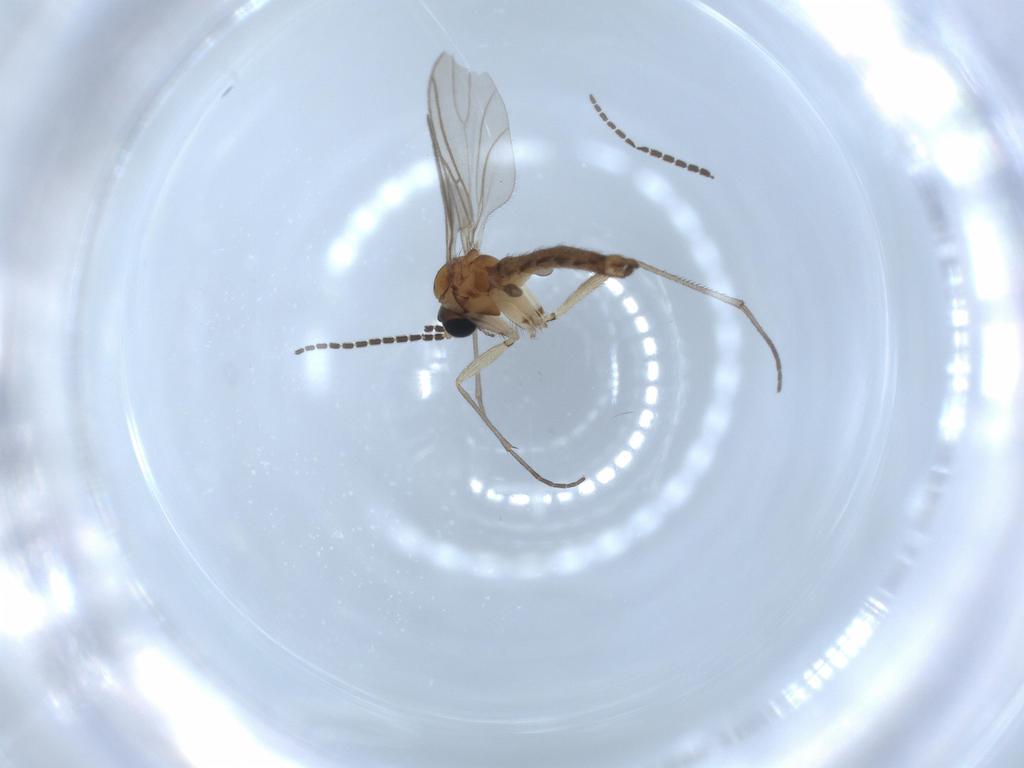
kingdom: Animalia
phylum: Arthropoda
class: Insecta
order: Diptera
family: Sciaridae
